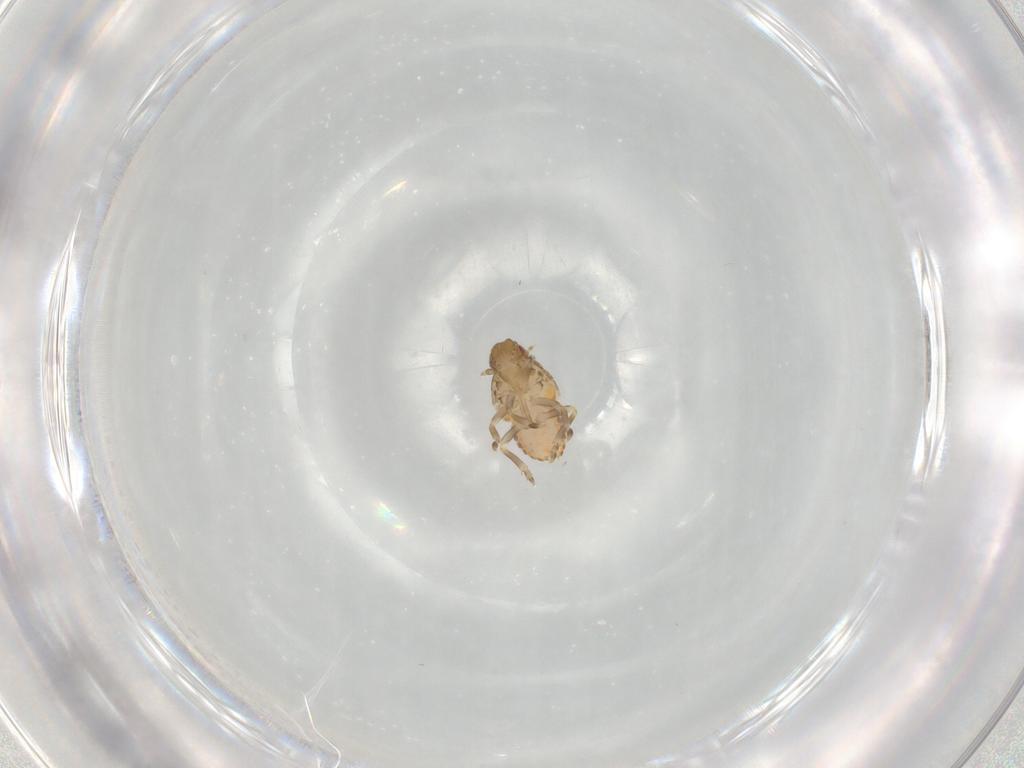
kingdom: Animalia
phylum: Arthropoda
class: Insecta
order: Hemiptera
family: Flatidae
